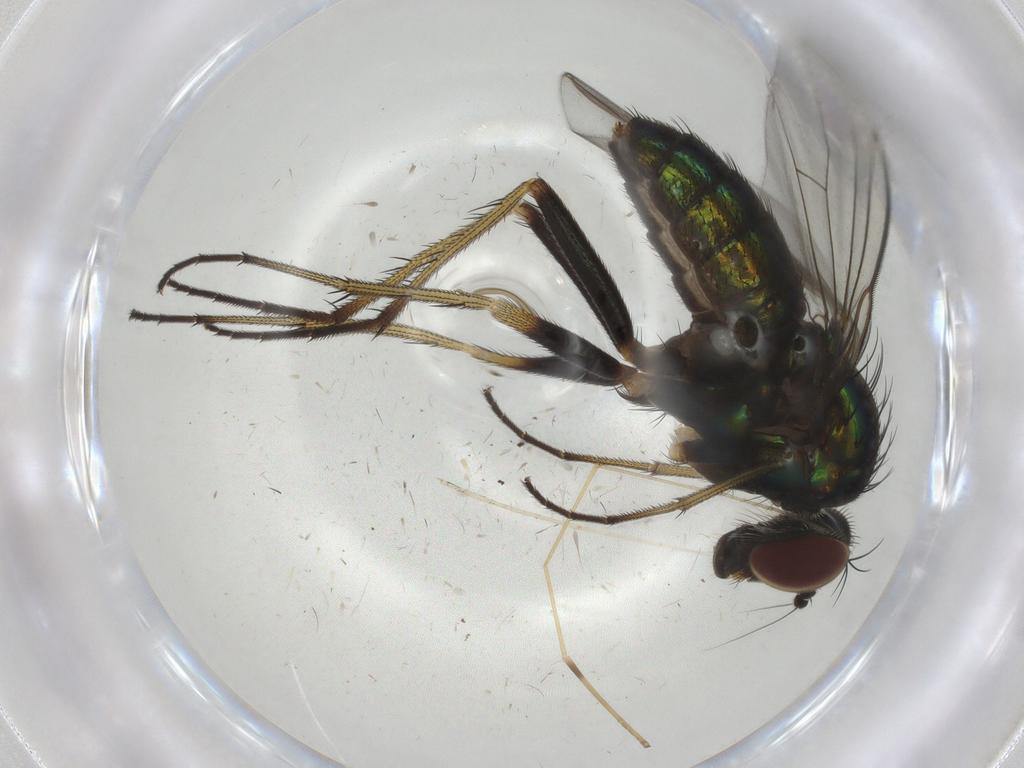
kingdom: Animalia
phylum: Arthropoda
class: Insecta
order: Diptera
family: Dolichopodidae
